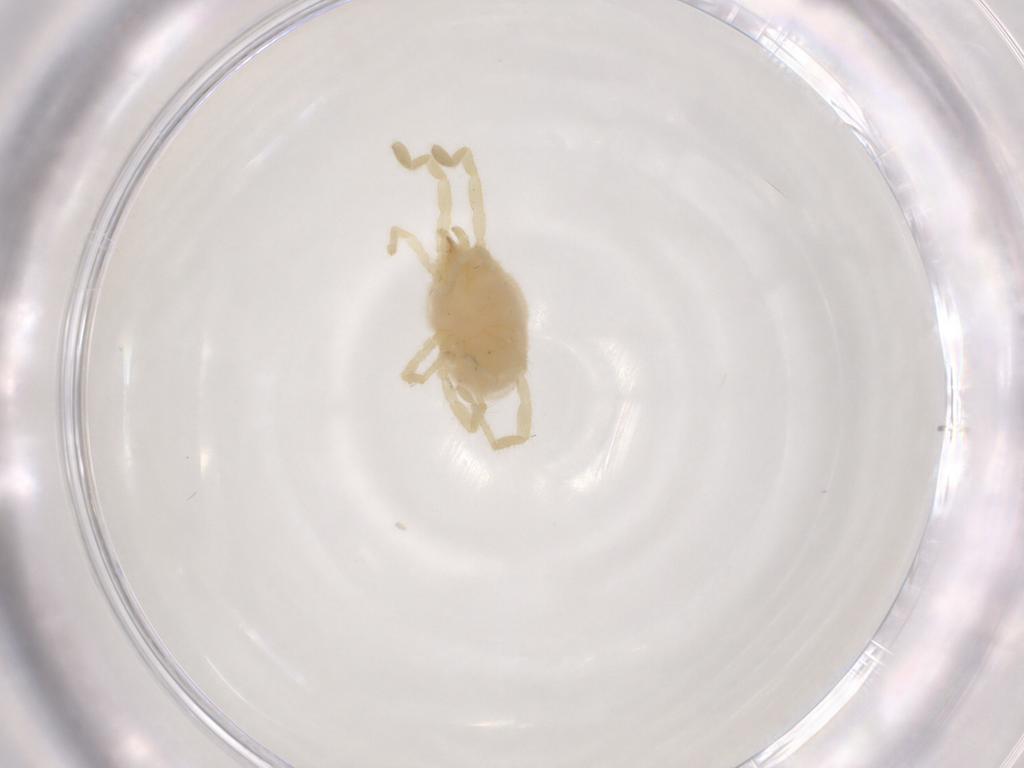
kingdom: Animalia
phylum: Arthropoda
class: Arachnida
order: Trombidiformes
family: Erythraeidae
